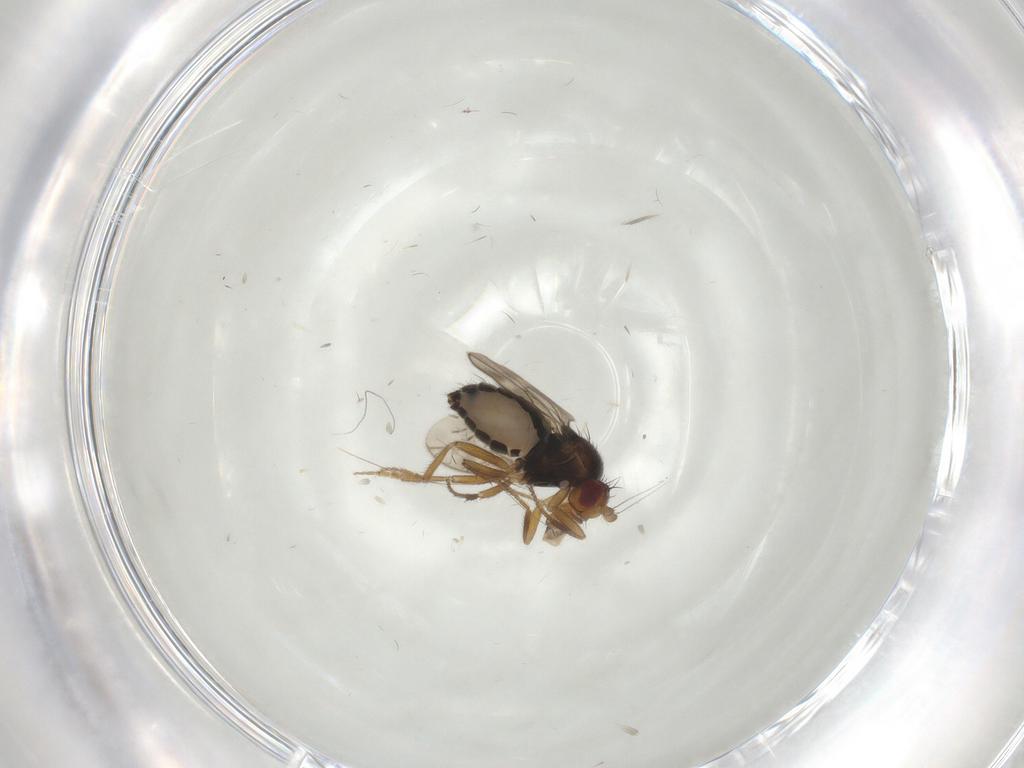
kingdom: Animalia
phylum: Arthropoda
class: Insecta
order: Diptera
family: Sphaeroceridae
